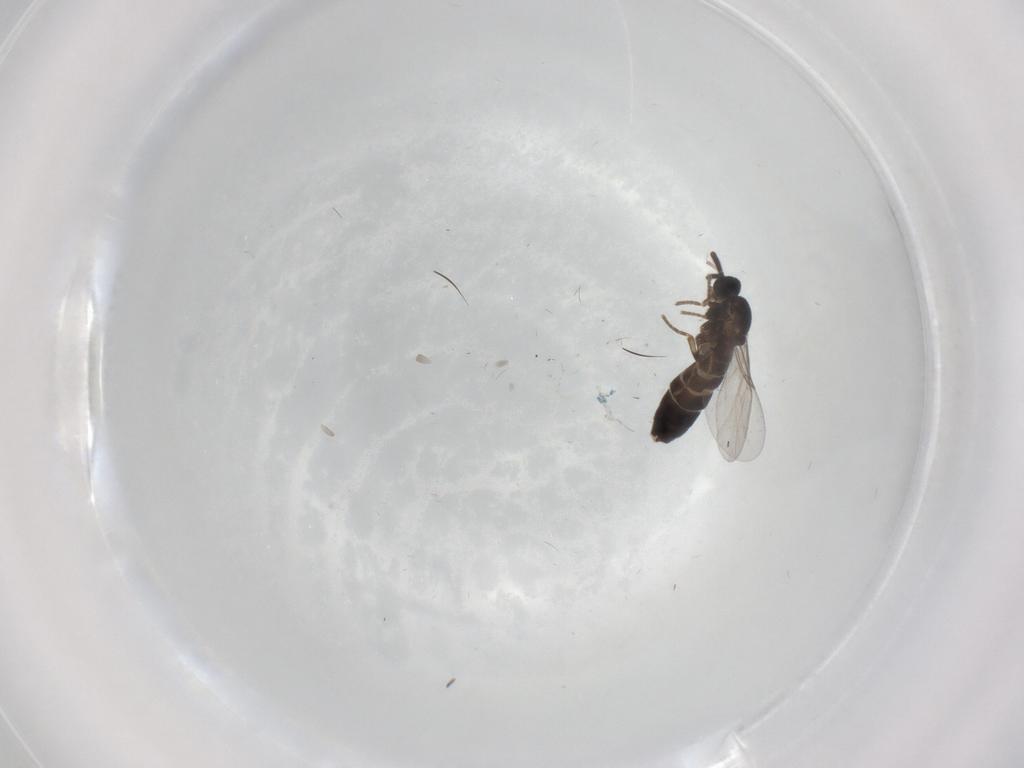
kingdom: Animalia
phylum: Arthropoda
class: Insecta
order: Diptera
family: Scatopsidae
